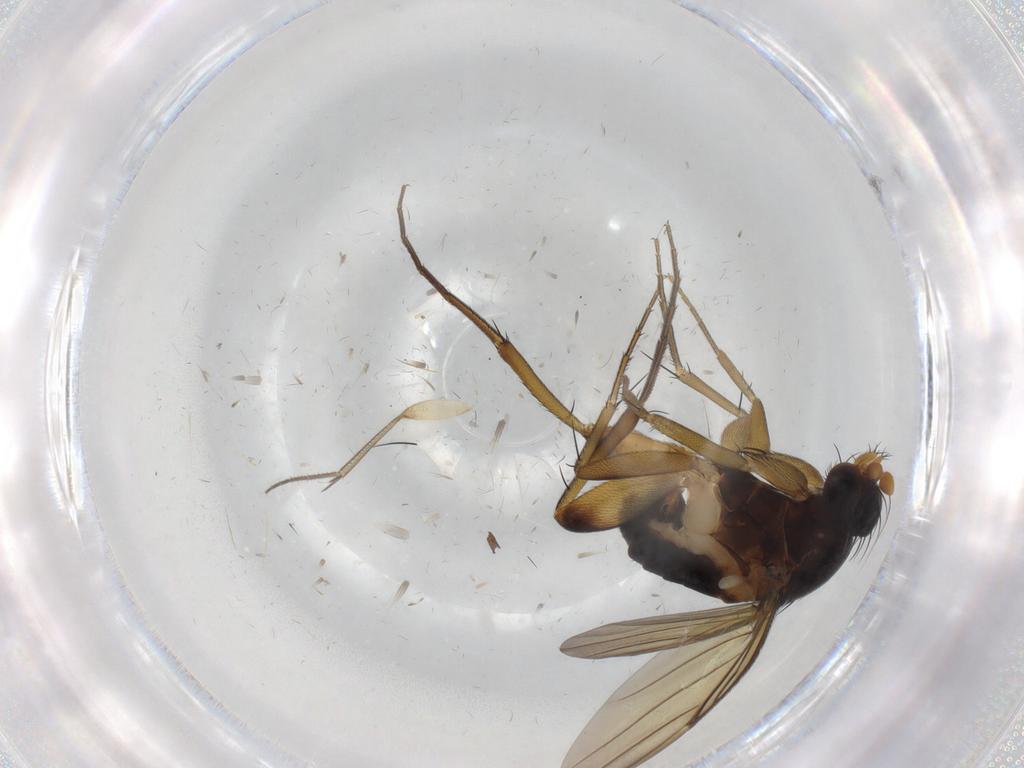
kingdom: Animalia
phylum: Arthropoda
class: Insecta
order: Diptera
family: Phoridae
